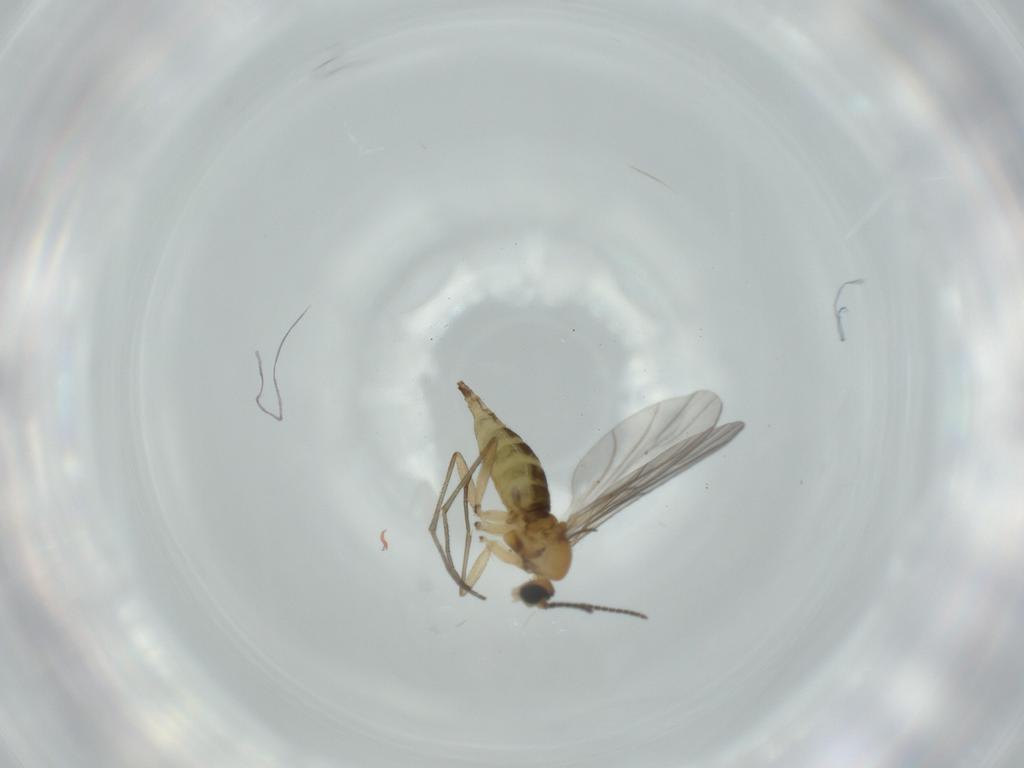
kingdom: Animalia
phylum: Arthropoda
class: Insecta
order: Diptera
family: Sciaridae
